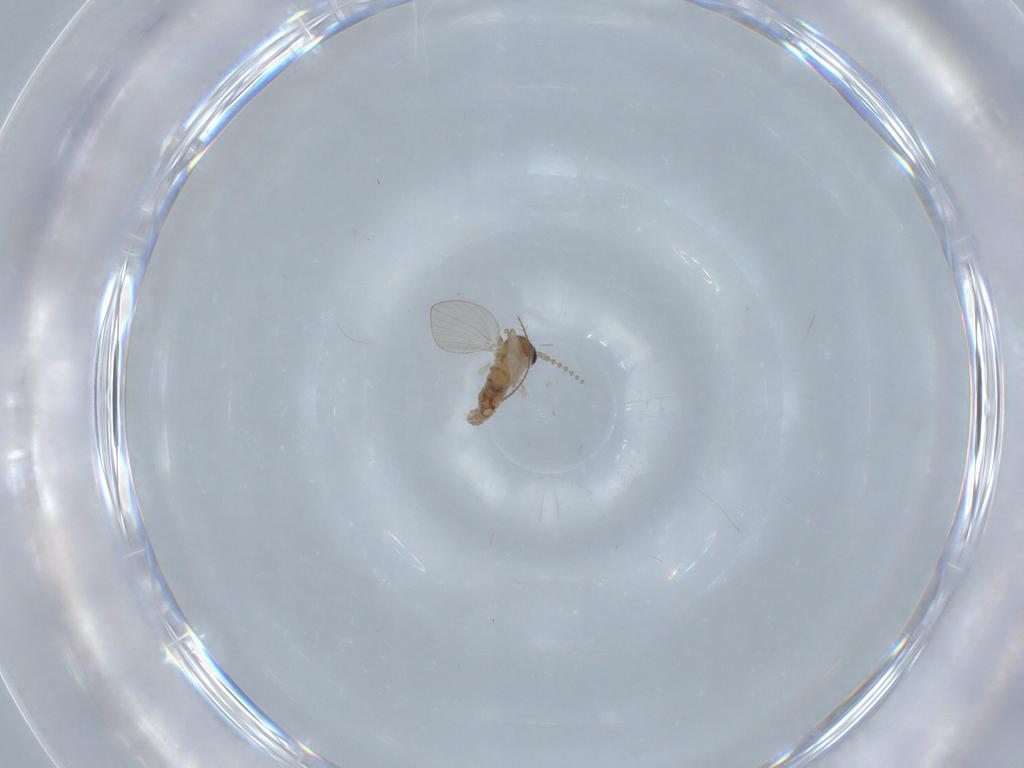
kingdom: Animalia
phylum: Arthropoda
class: Insecta
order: Diptera
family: Psychodidae
